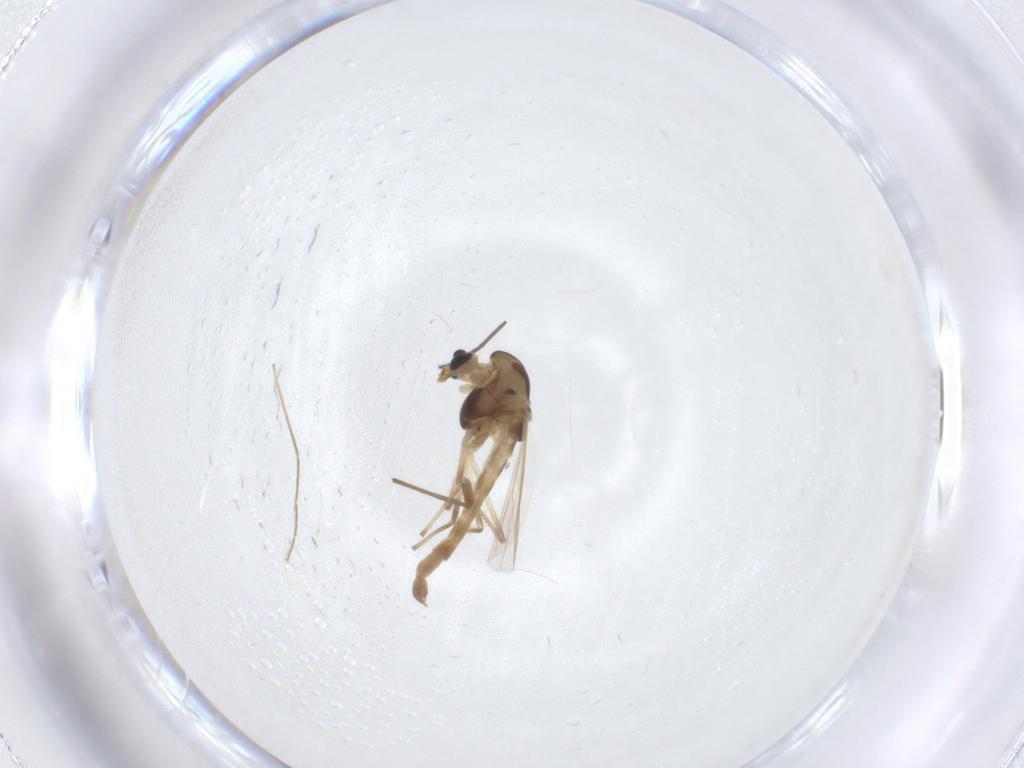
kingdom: Animalia
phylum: Arthropoda
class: Insecta
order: Diptera
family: Chironomidae
